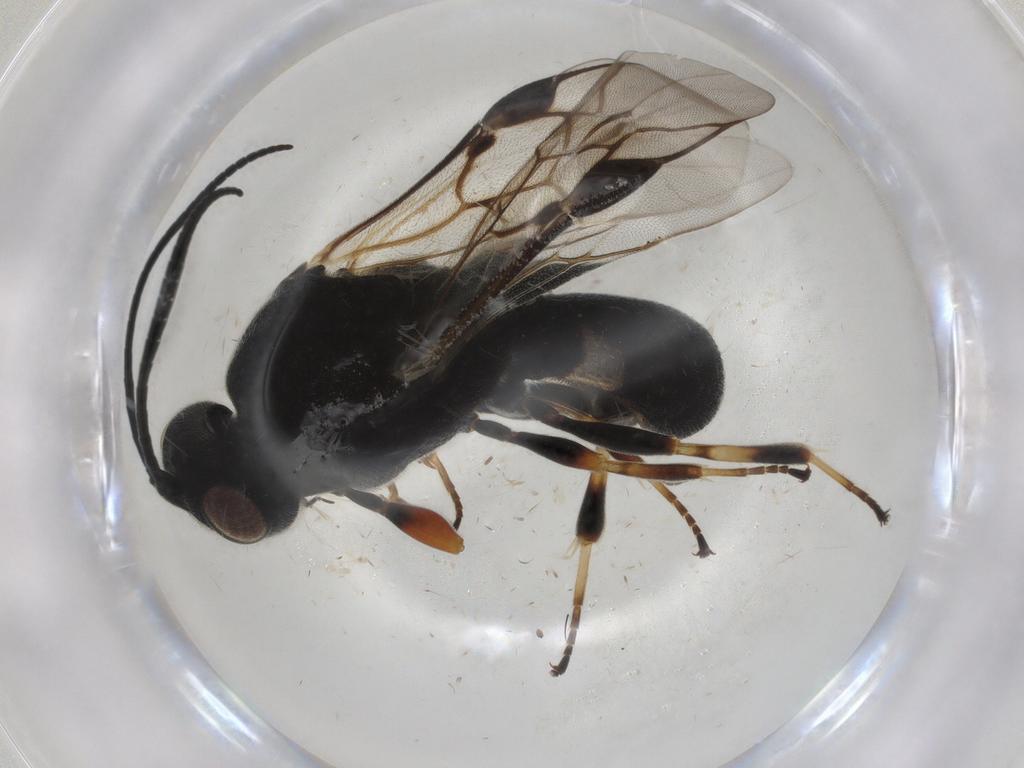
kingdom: Animalia
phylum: Arthropoda
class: Insecta
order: Hymenoptera
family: Braconidae
